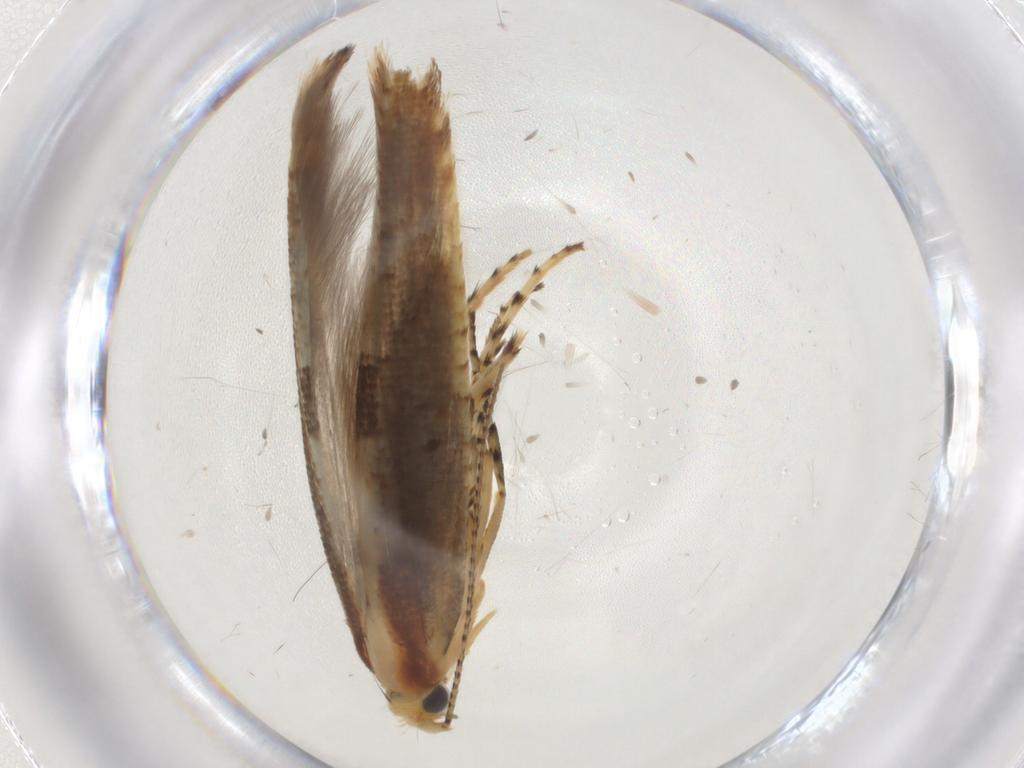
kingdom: Animalia
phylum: Arthropoda
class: Insecta
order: Lepidoptera
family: Argyresthiidae
